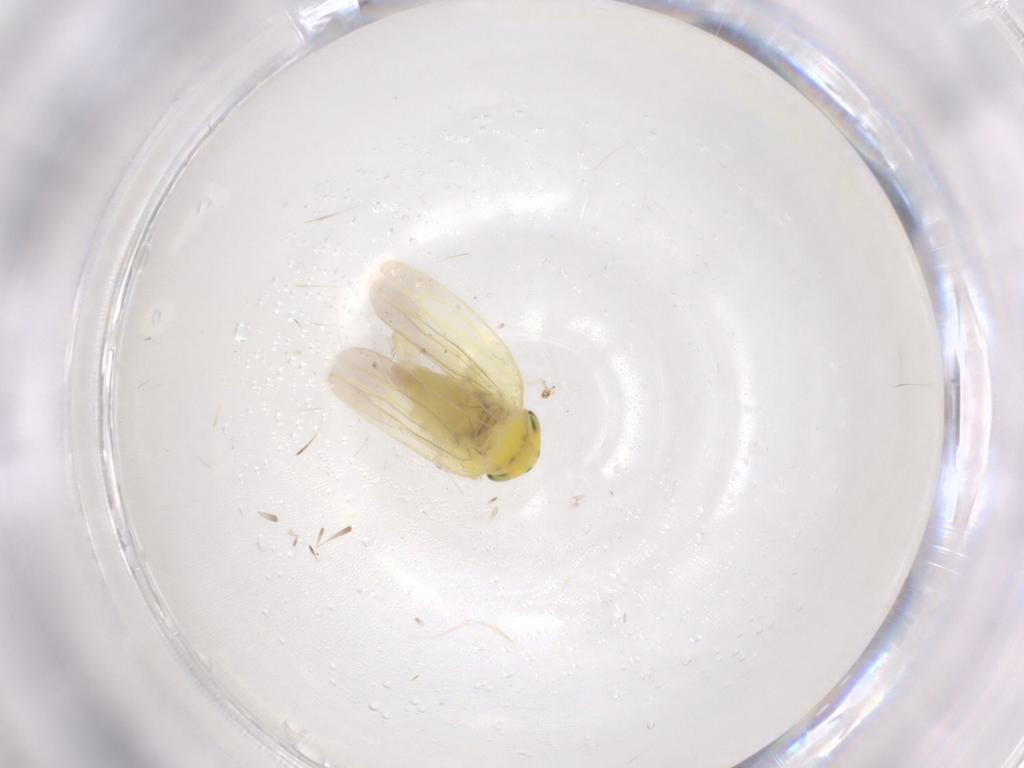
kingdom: Animalia
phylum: Arthropoda
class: Insecta
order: Hemiptera
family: Cicadellidae
